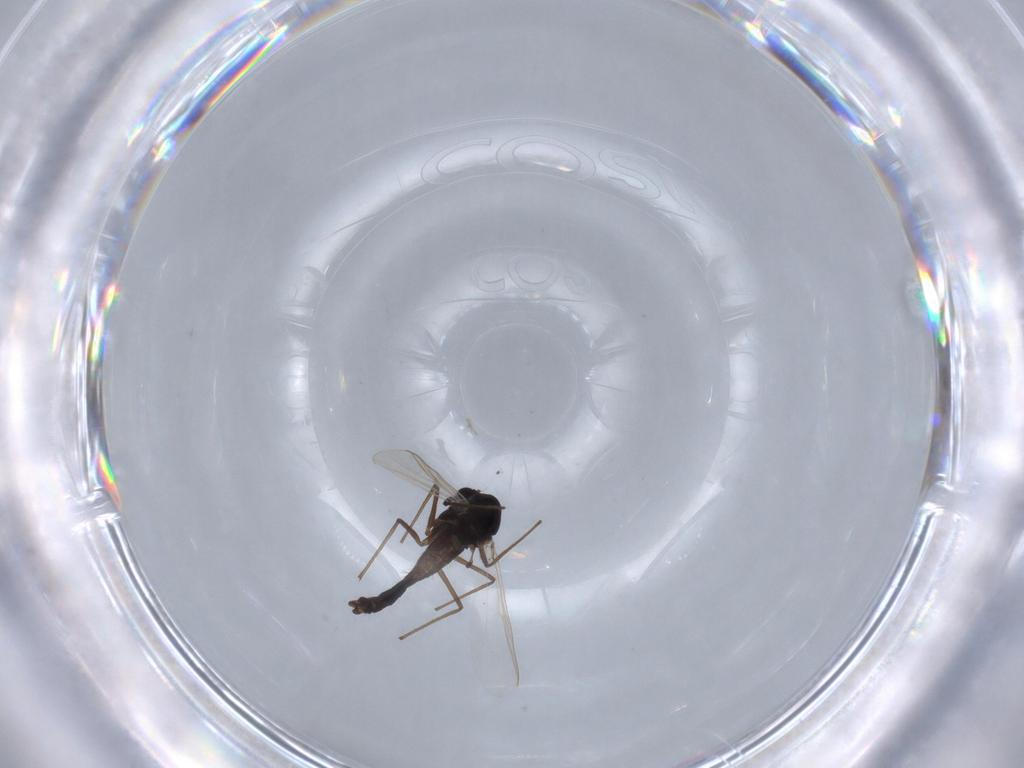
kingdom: Animalia
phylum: Arthropoda
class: Insecta
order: Diptera
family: Chironomidae
